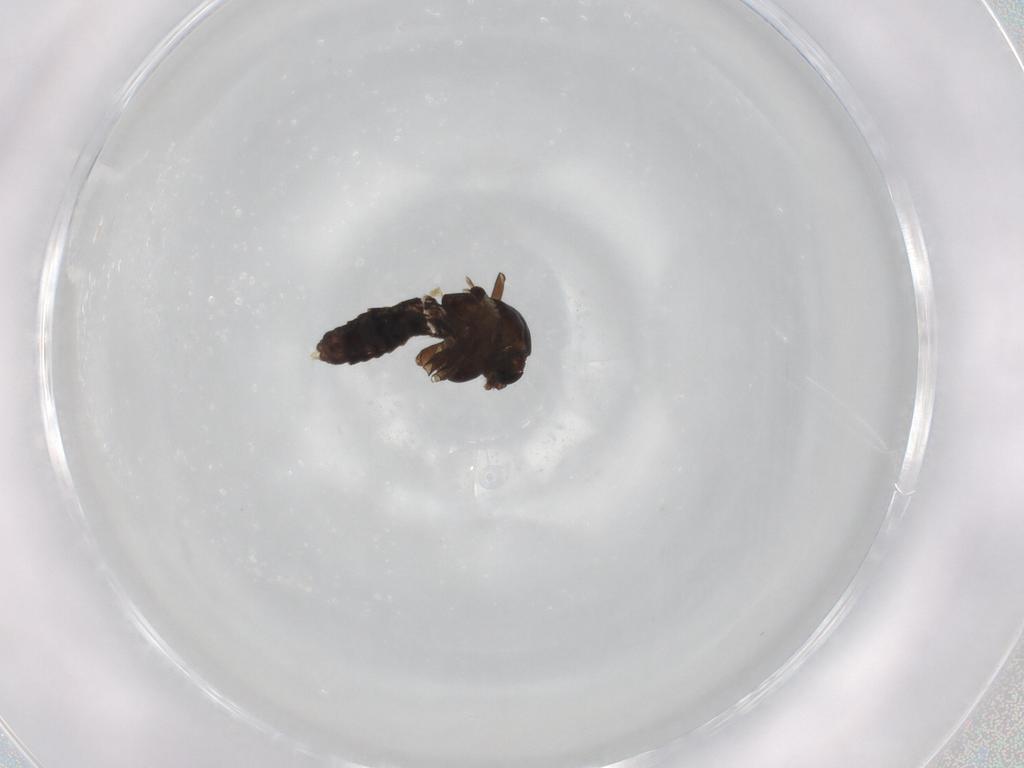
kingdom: Animalia
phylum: Arthropoda
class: Insecta
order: Diptera
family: Chironomidae
